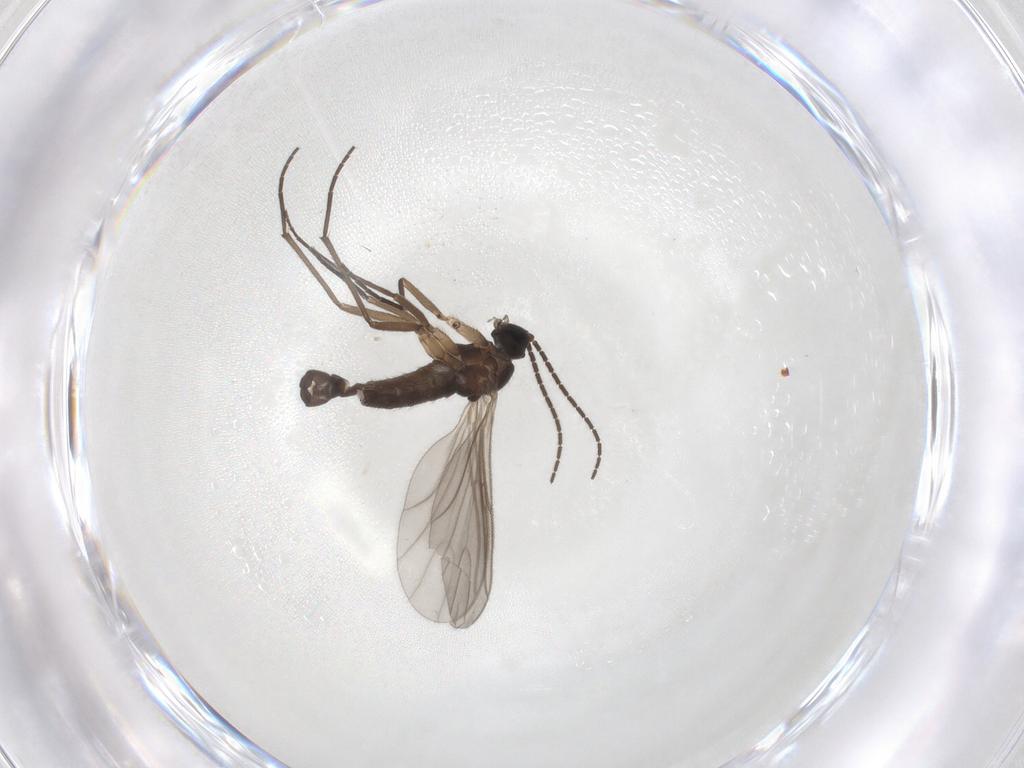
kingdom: Animalia
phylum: Arthropoda
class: Insecta
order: Diptera
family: Sciaridae
